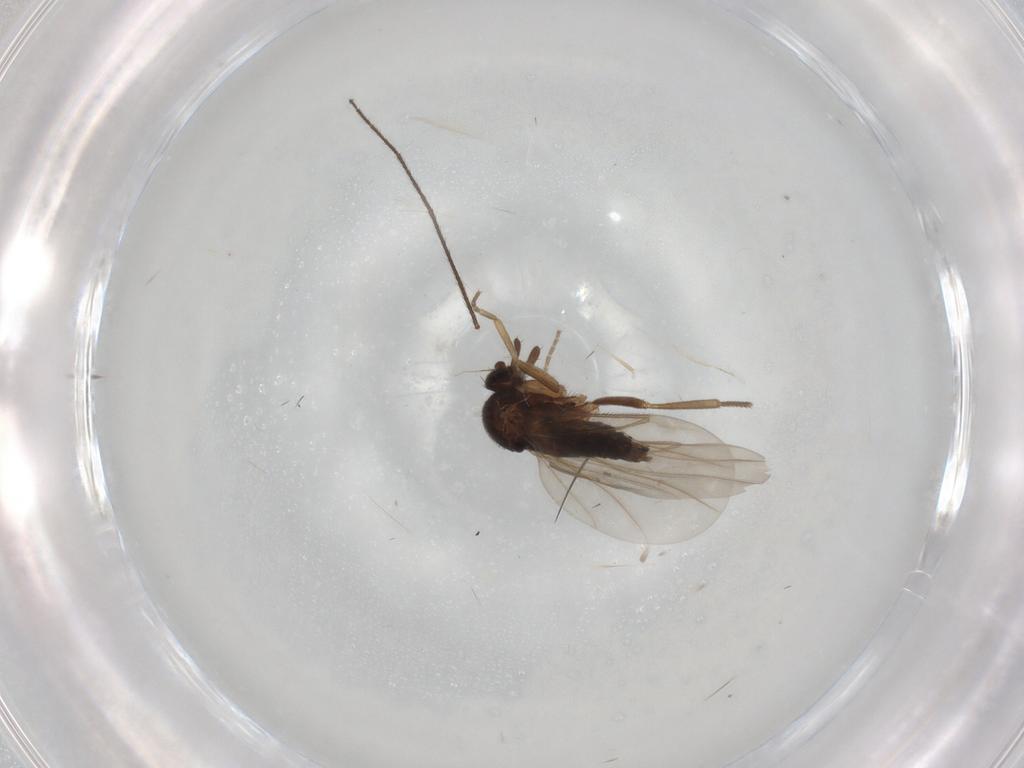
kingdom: Animalia
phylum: Arthropoda
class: Insecta
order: Diptera
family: Phoridae
